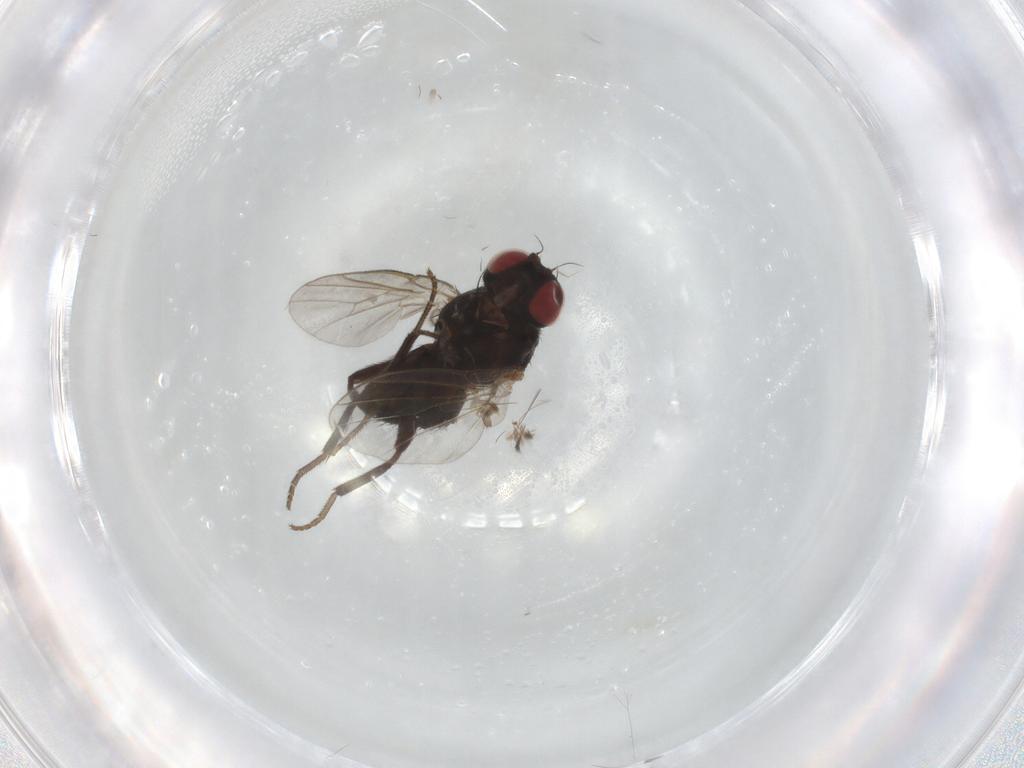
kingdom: Animalia
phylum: Arthropoda
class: Insecta
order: Diptera
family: Agromyzidae
